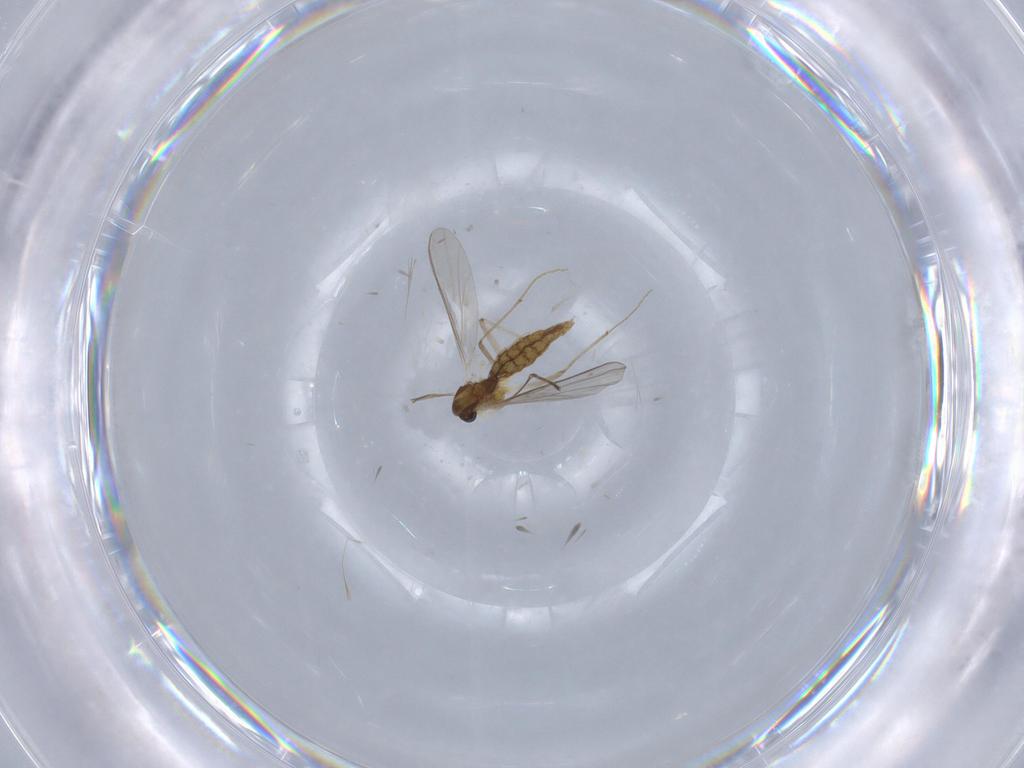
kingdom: Animalia
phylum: Arthropoda
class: Insecta
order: Diptera
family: Chironomidae
